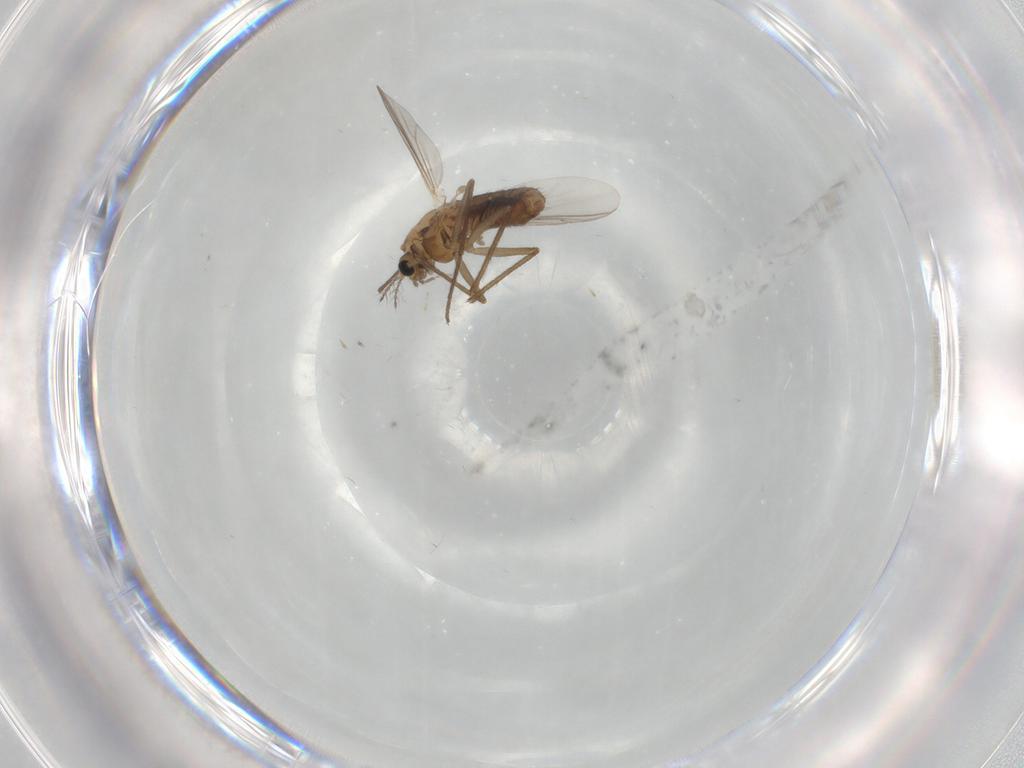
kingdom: Animalia
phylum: Arthropoda
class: Insecta
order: Diptera
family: Chironomidae
